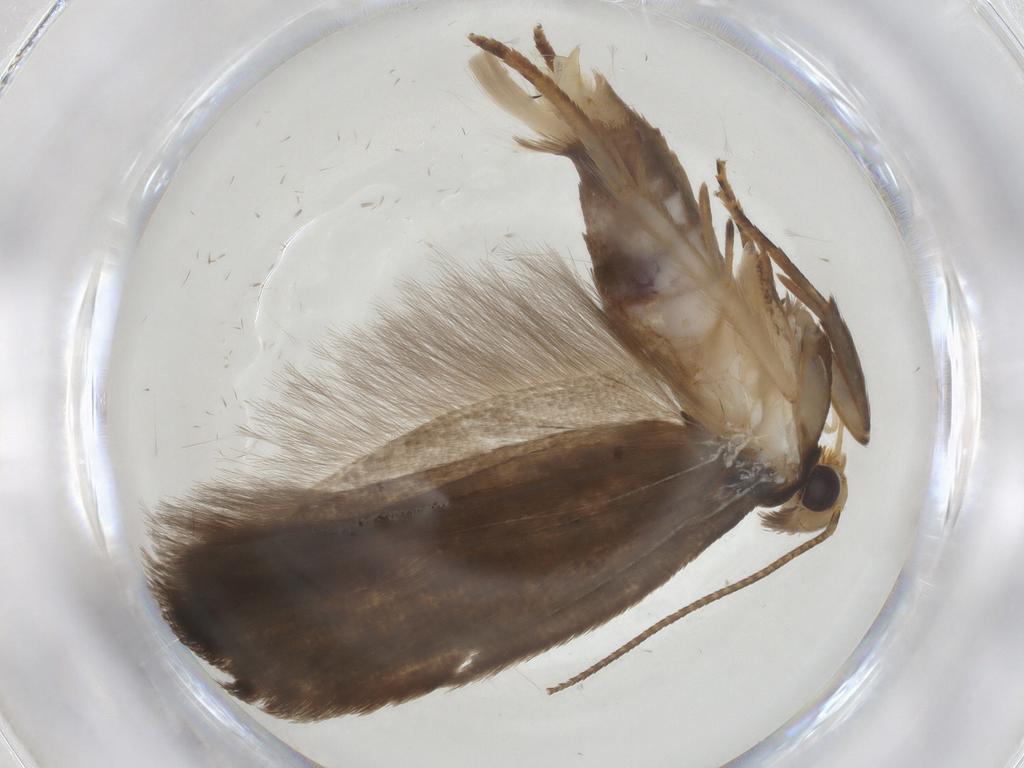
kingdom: Animalia
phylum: Arthropoda
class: Insecta
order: Lepidoptera
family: Gelechiidae
